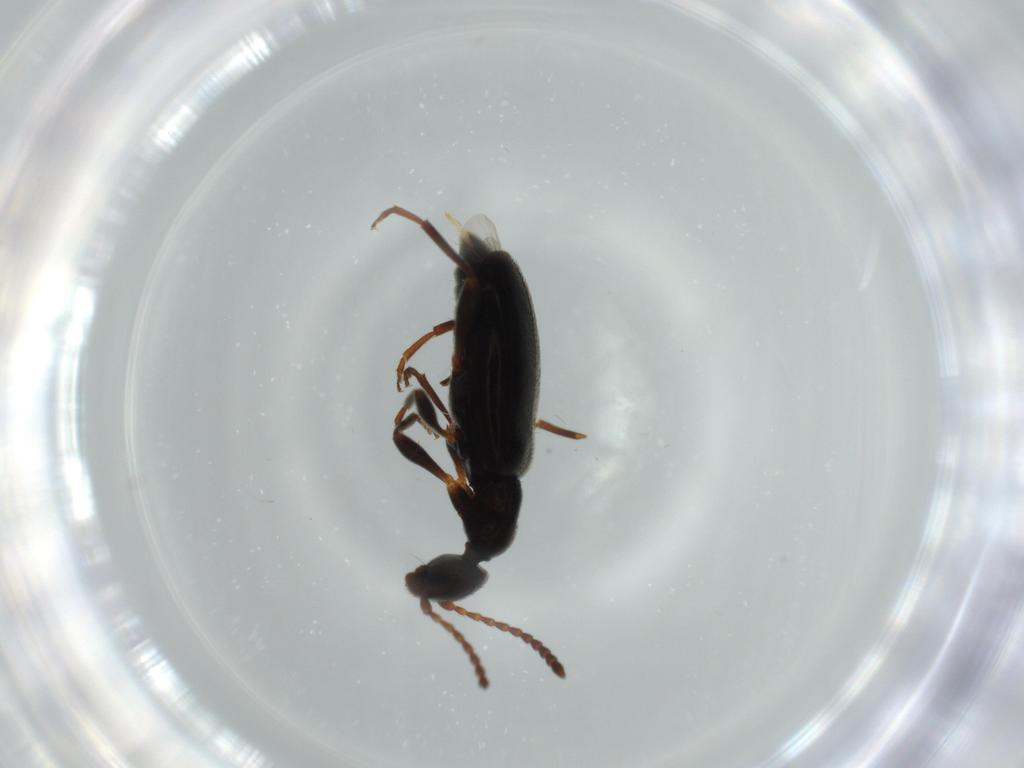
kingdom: Animalia
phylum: Arthropoda
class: Insecta
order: Coleoptera
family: Anthicidae
